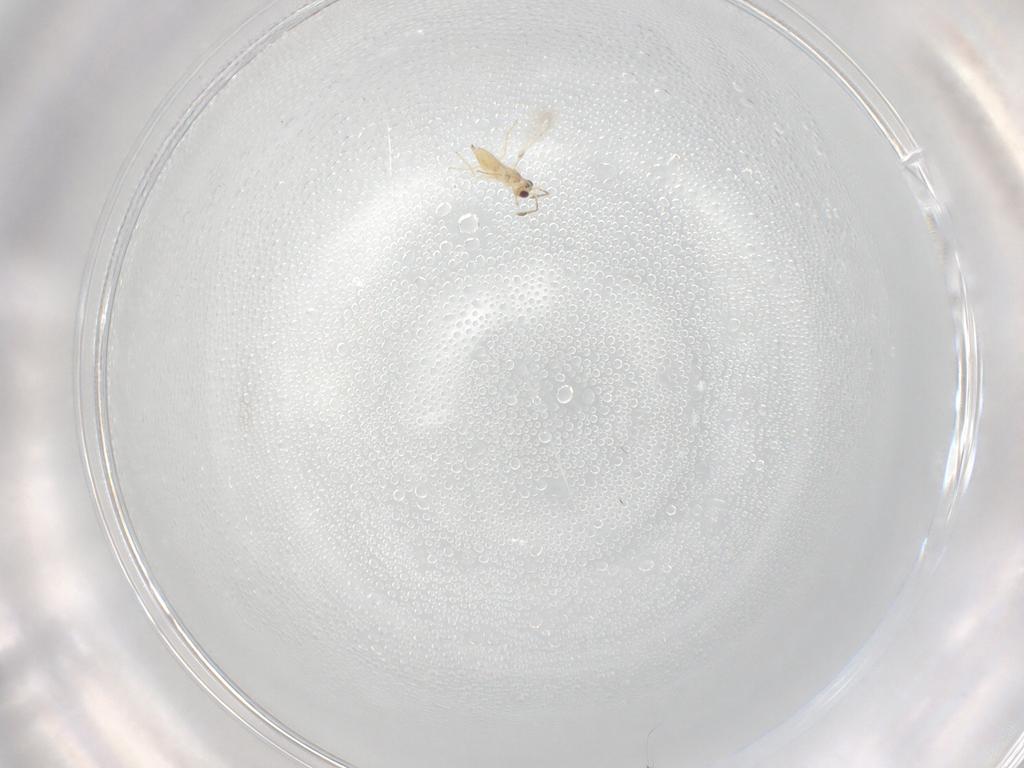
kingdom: Animalia
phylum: Arthropoda
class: Insecta
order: Hymenoptera
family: Mymaridae
